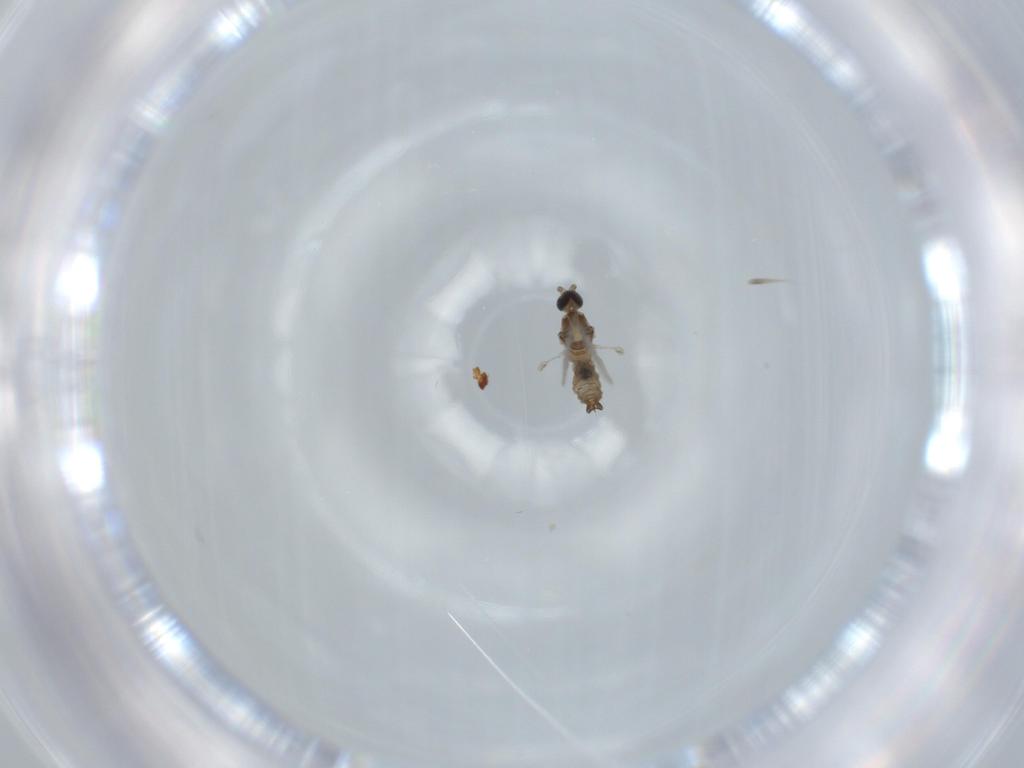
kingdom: Animalia
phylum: Arthropoda
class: Insecta
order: Diptera
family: Cecidomyiidae
